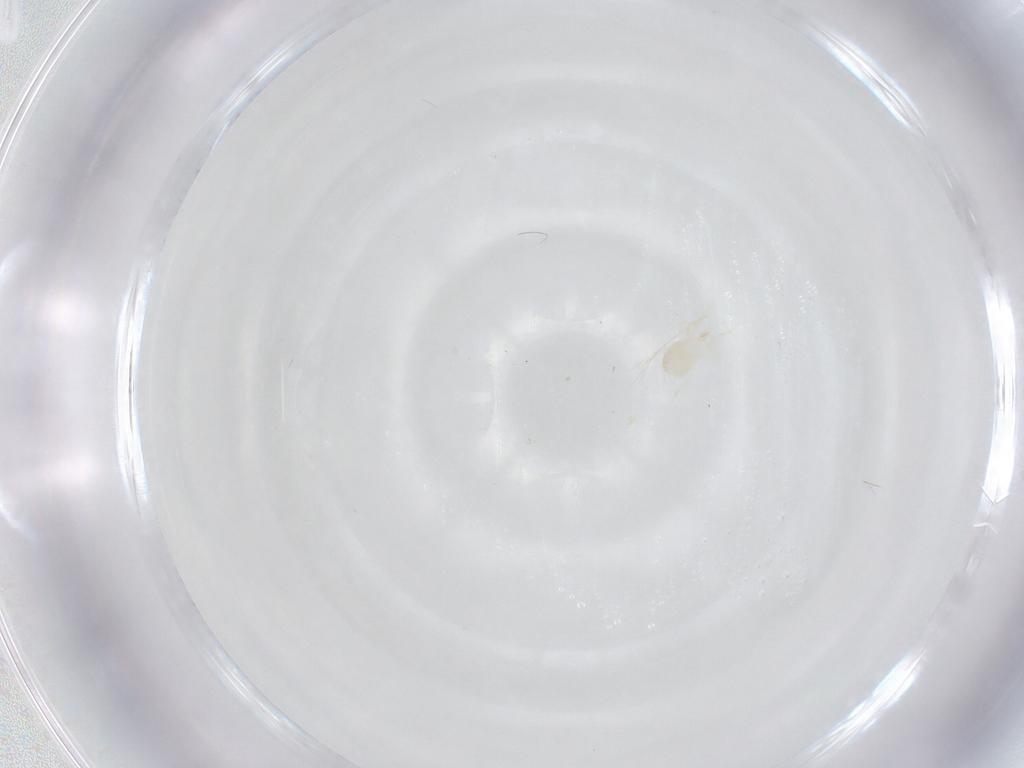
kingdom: Animalia
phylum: Arthropoda
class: Arachnida
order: Mesostigmata
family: Phytoseiidae
